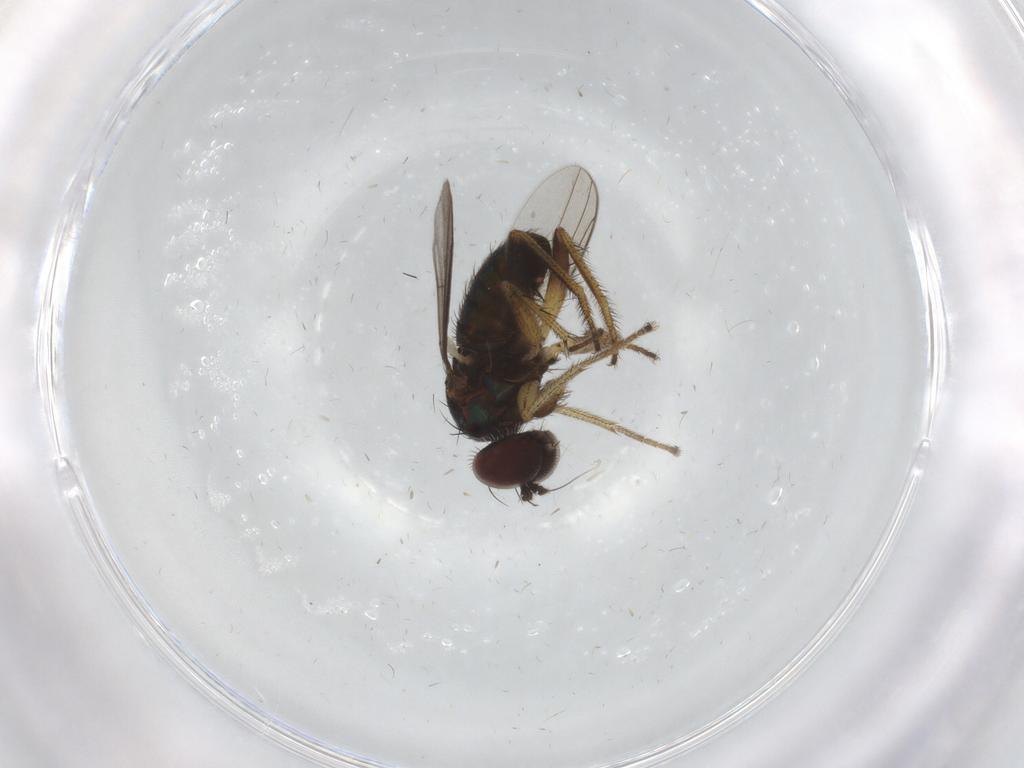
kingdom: Animalia
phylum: Arthropoda
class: Insecta
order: Diptera
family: Dolichopodidae
